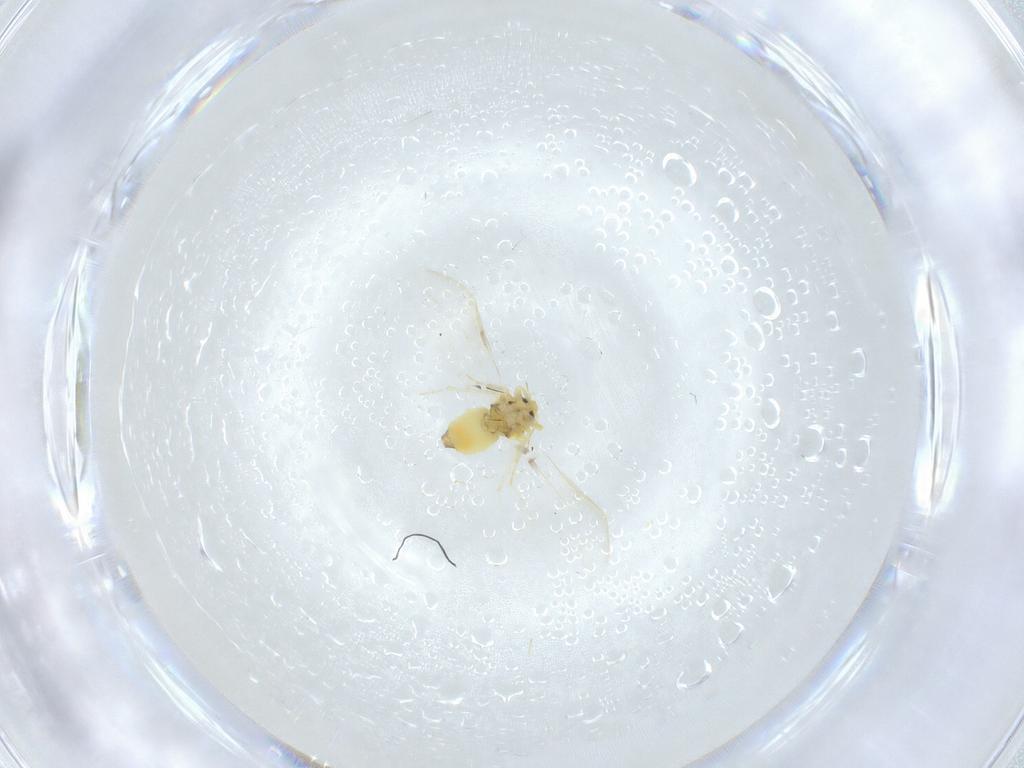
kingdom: Animalia
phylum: Arthropoda
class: Insecta
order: Hemiptera
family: Aleyrodidae
